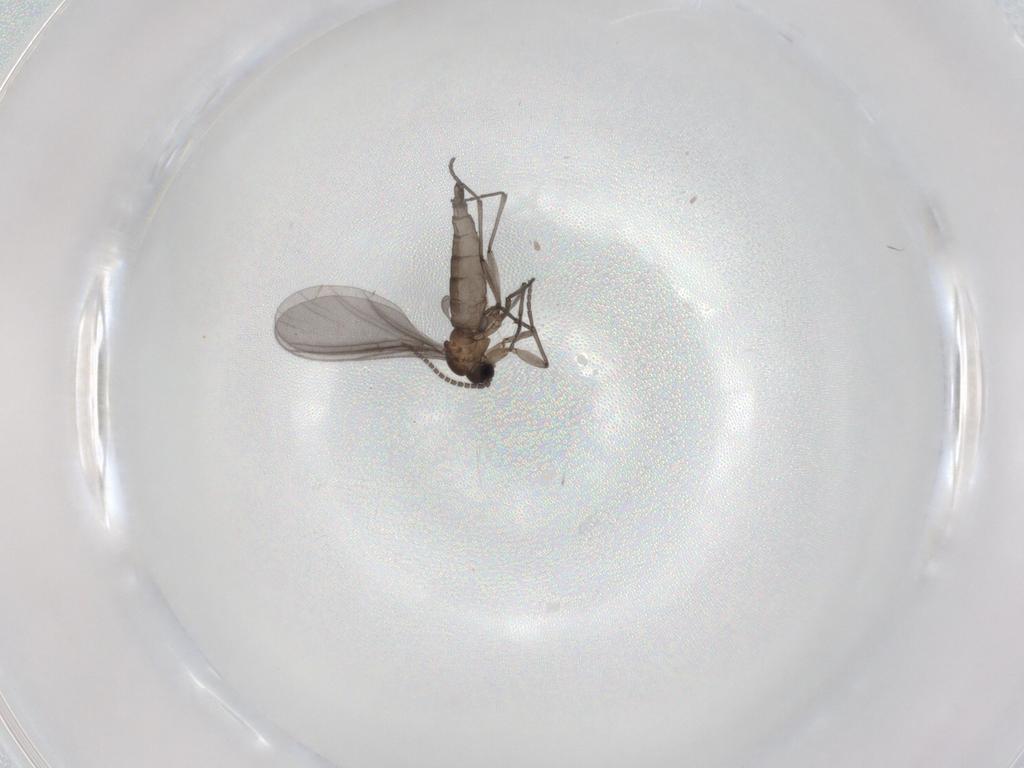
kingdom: Animalia
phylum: Arthropoda
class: Insecta
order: Diptera
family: Sciaridae
